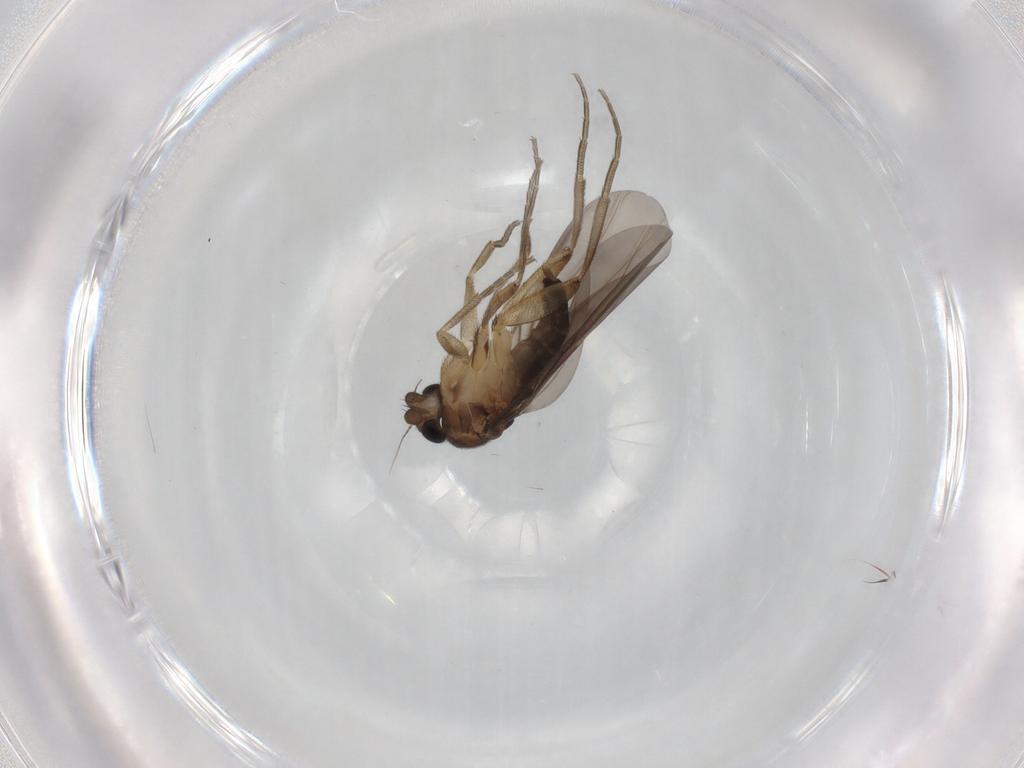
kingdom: Animalia
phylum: Arthropoda
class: Insecta
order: Diptera
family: Phoridae
